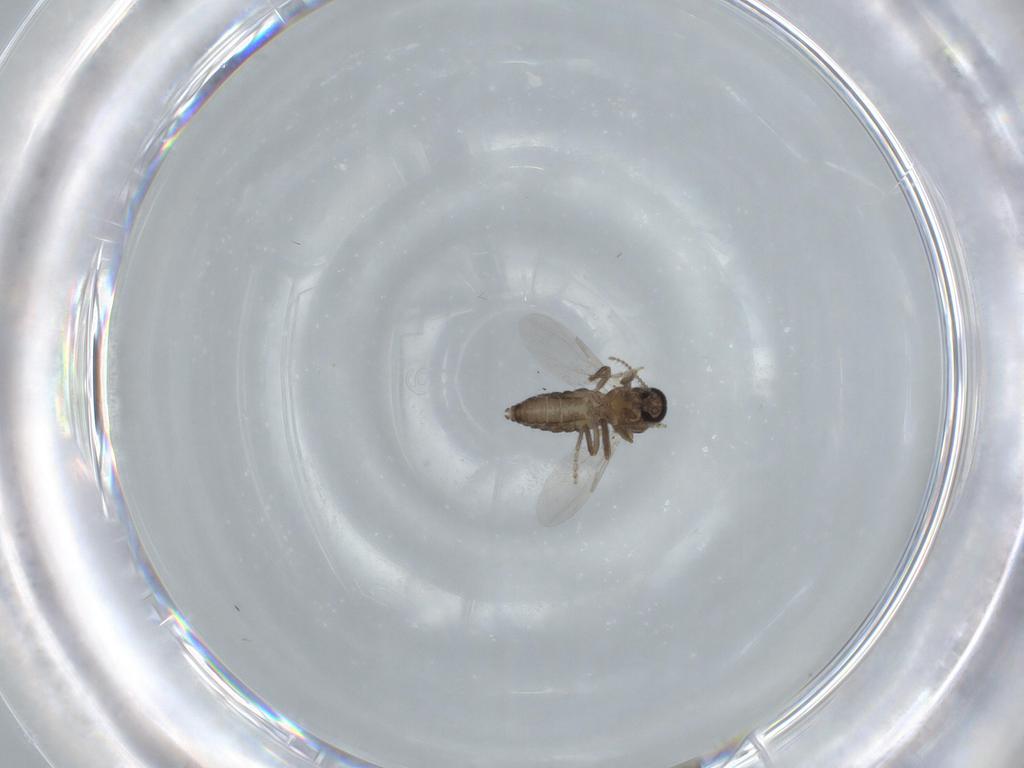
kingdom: Animalia
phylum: Arthropoda
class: Insecta
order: Diptera
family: Ceratopogonidae
